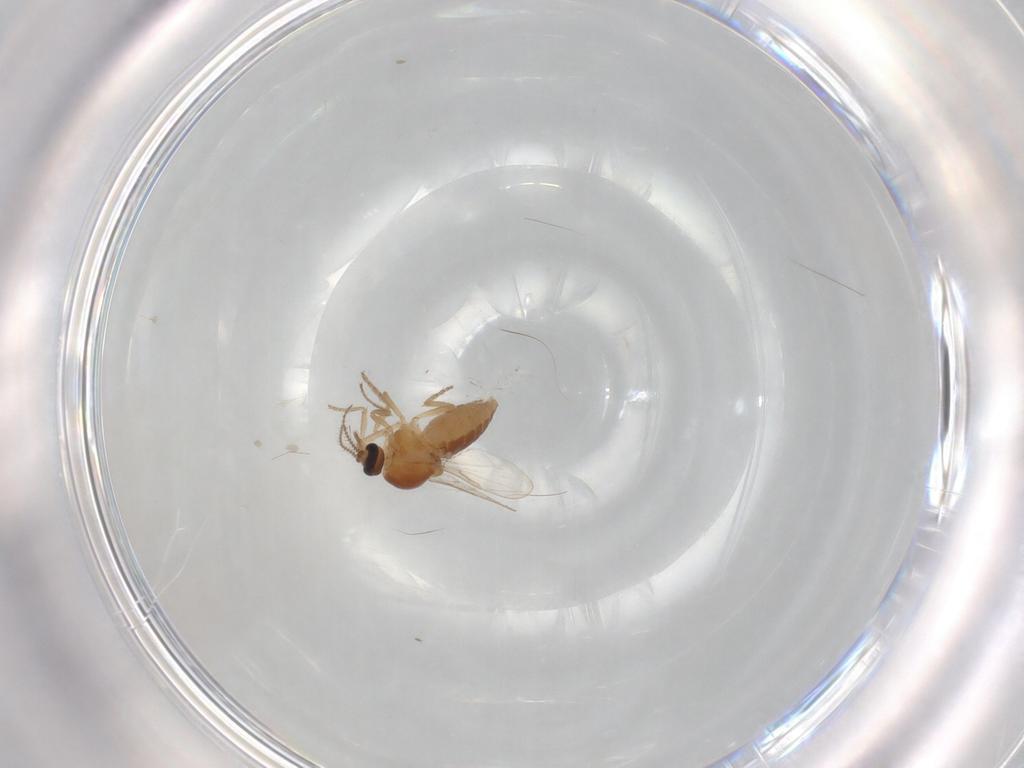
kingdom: Animalia
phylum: Arthropoda
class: Insecta
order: Diptera
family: Ceratopogonidae
